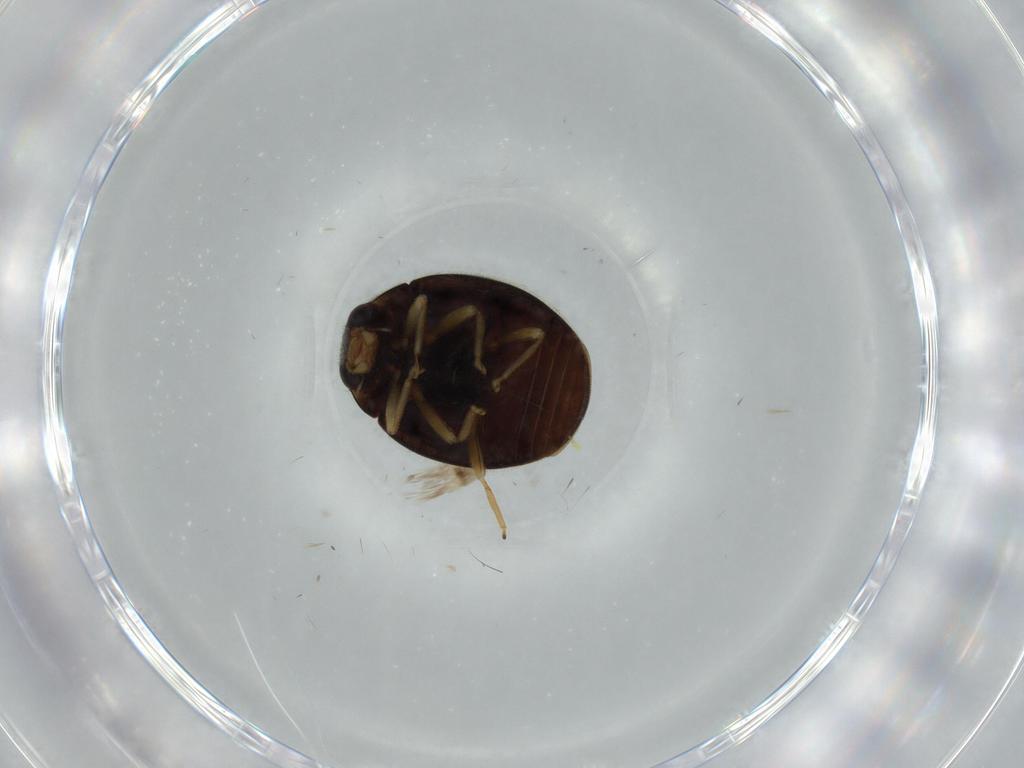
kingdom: Animalia
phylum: Arthropoda
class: Insecta
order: Coleoptera
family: Coccinellidae
